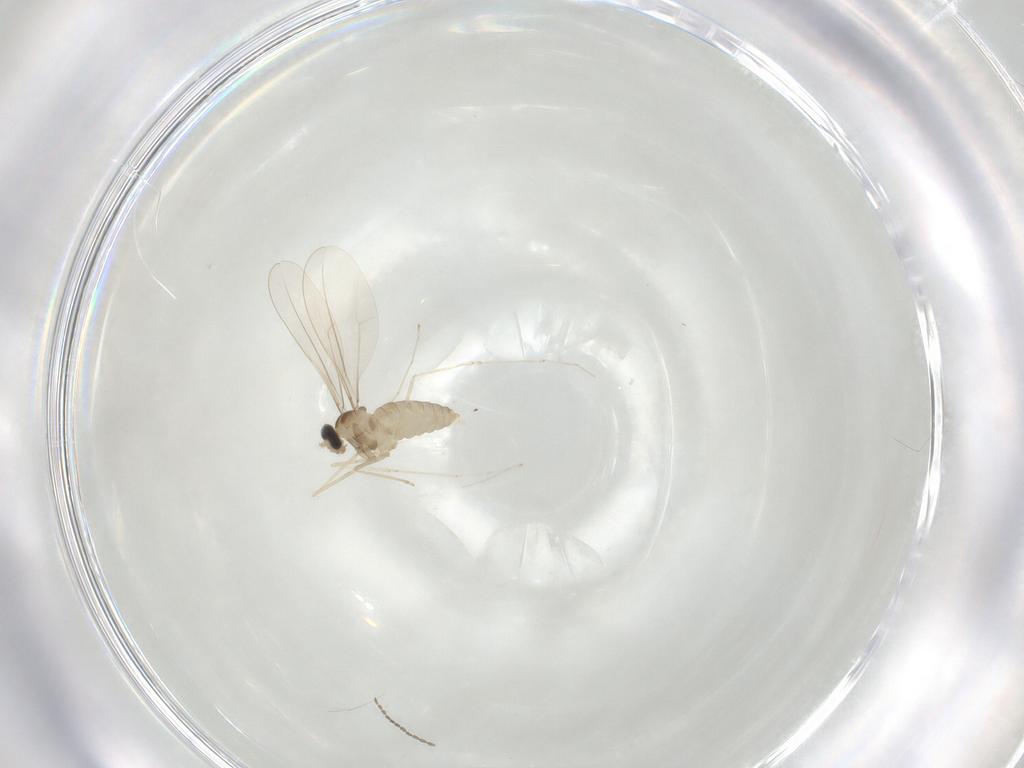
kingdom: Animalia
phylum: Arthropoda
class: Insecta
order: Diptera
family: Cecidomyiidae
